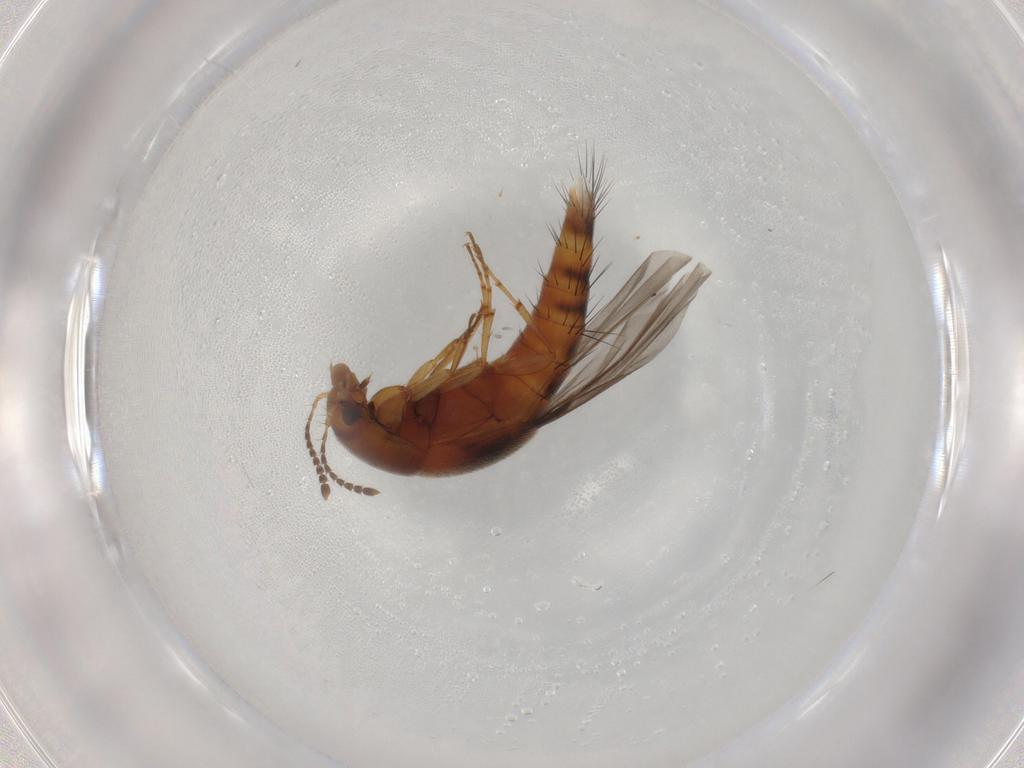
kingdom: Animalia
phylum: Arthropoda
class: Insecta
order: Coleoptera
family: Staphylinidae
